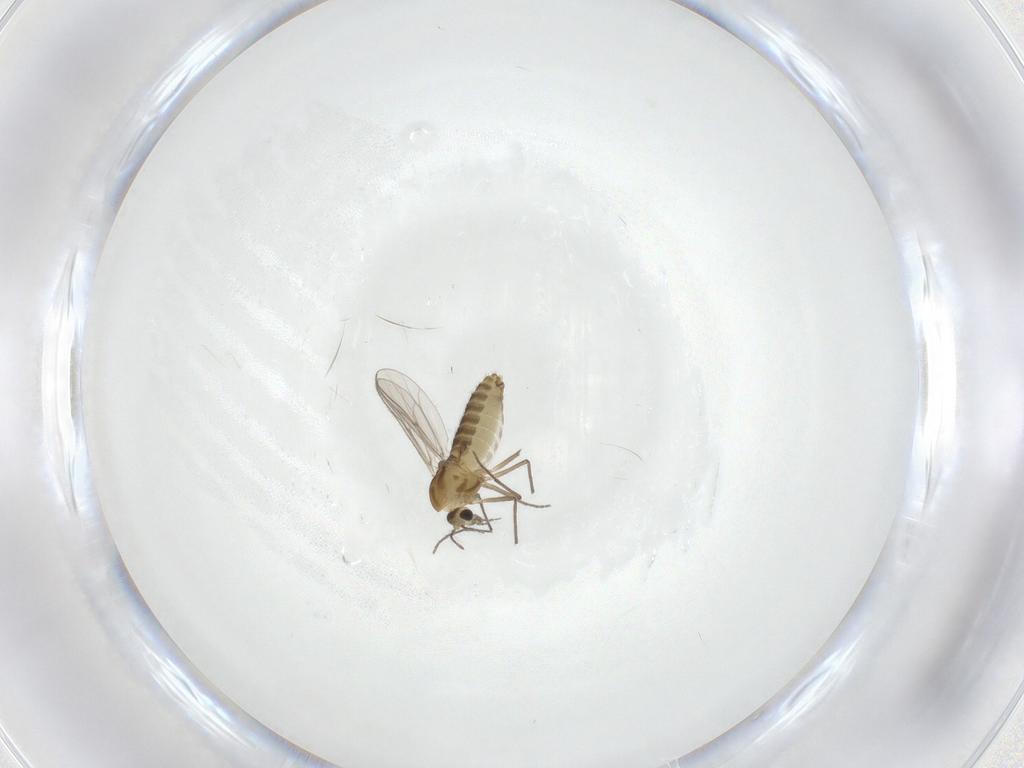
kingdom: Animalia
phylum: Arthropoda
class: Insecta
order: Diptera
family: Chironomidae
